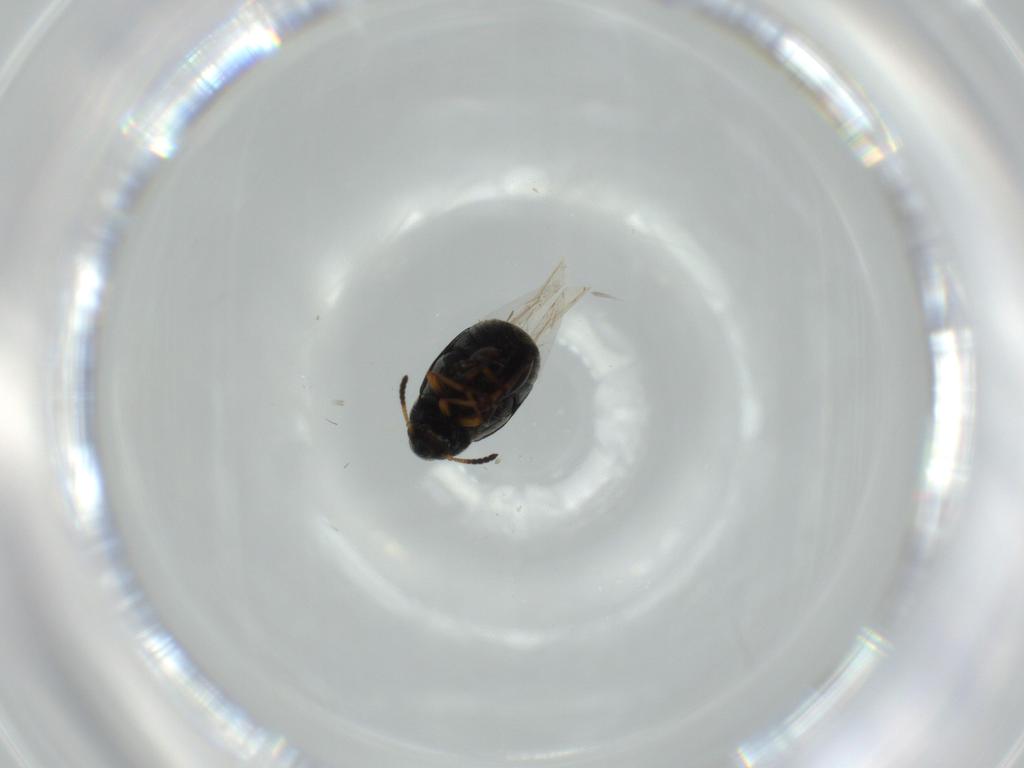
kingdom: Animalia
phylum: Arthropoda
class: Insecta
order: Coleoptera
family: Chrysomelidae
